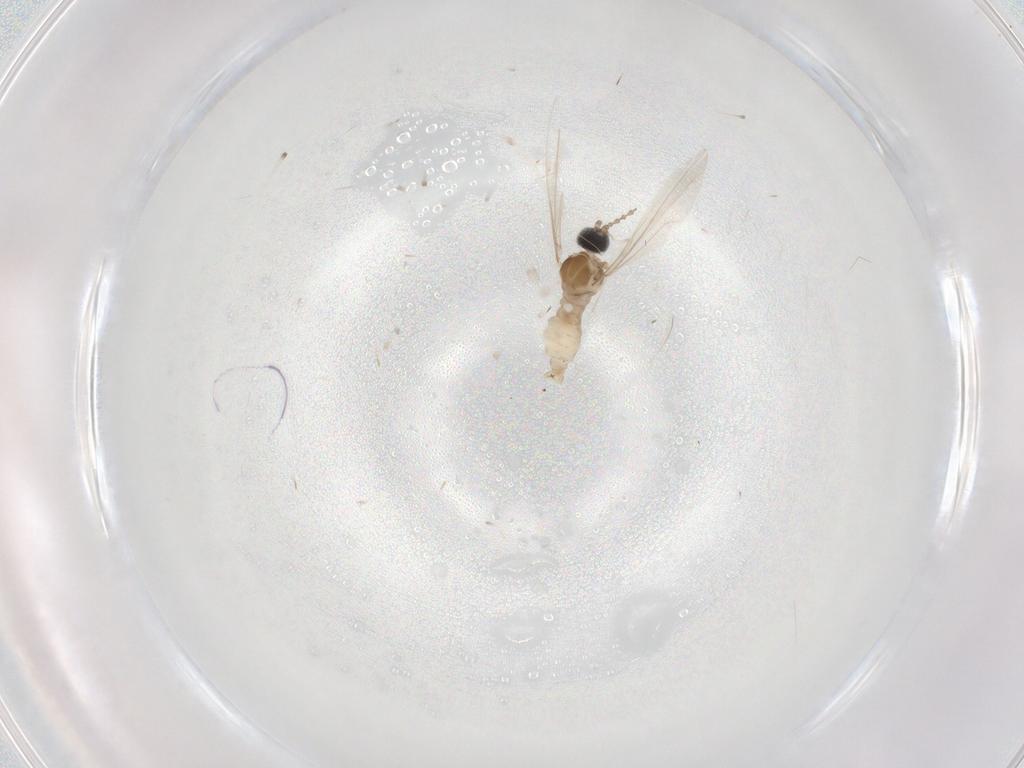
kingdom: Animalia
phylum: Arthropoda
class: Insecta
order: Diptera
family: Cecidomyiidae
